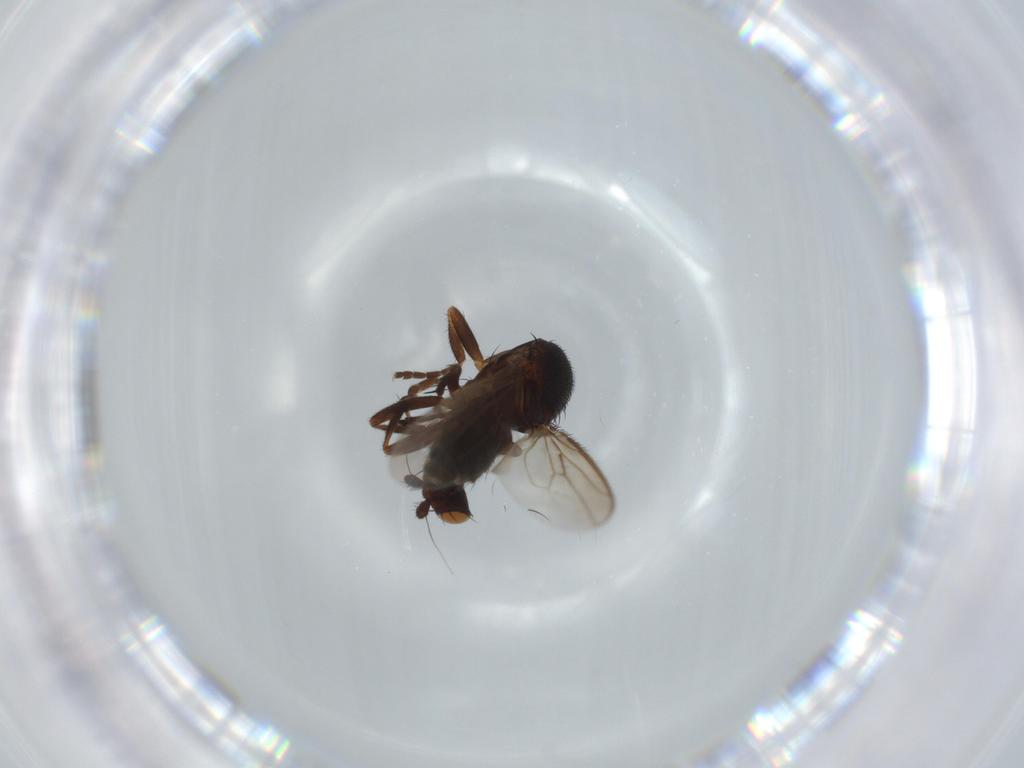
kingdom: Animalia
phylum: Arthropoda
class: Insecta
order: Diptera
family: Sphaeroceridae
